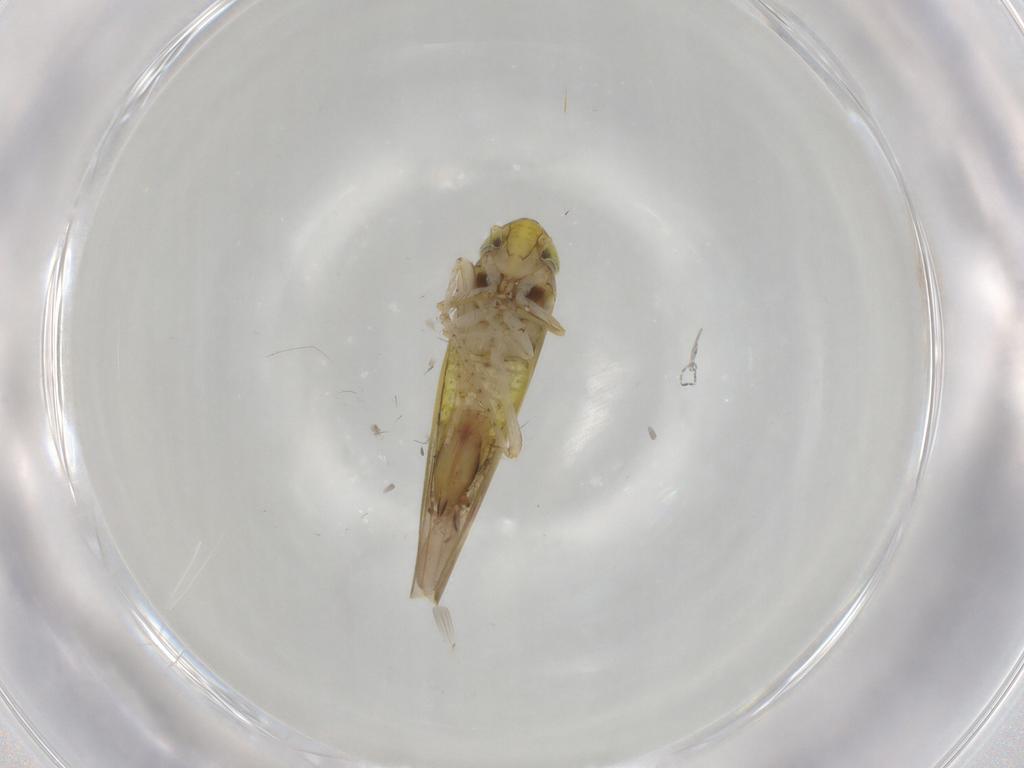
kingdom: Animalia
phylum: Arthropoda
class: Insecta
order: Hemiptera
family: Cicadellidae
